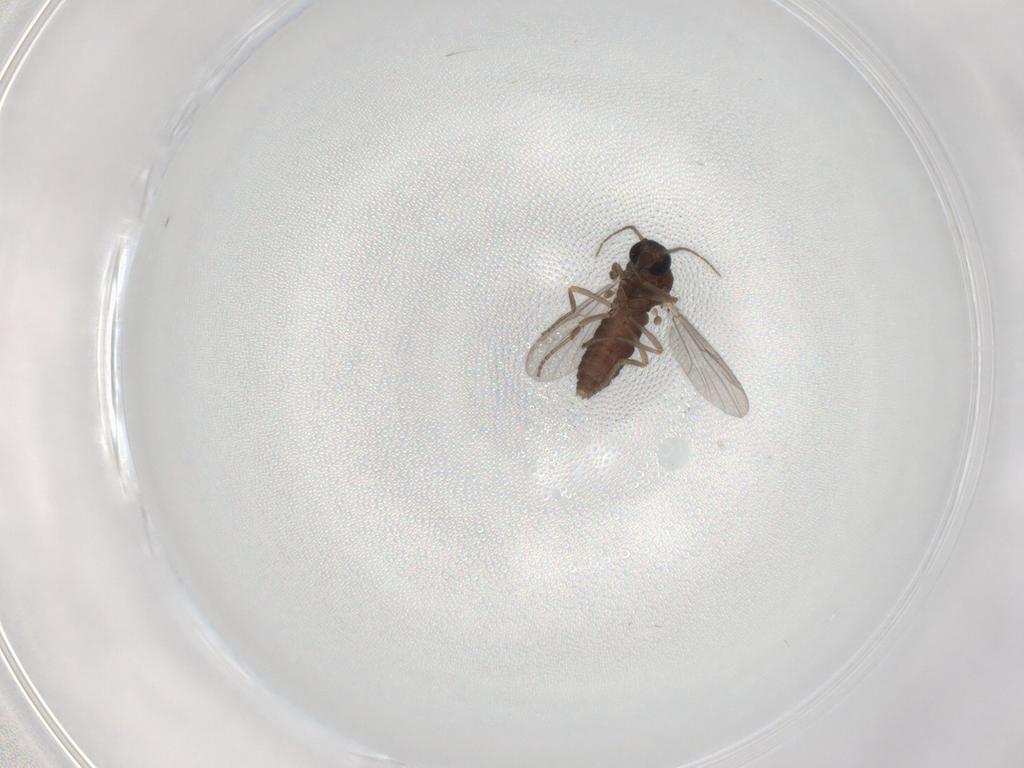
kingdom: Animalia
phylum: Arthropoda
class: Insecta
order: Diptera
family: Ceratopogonidae
